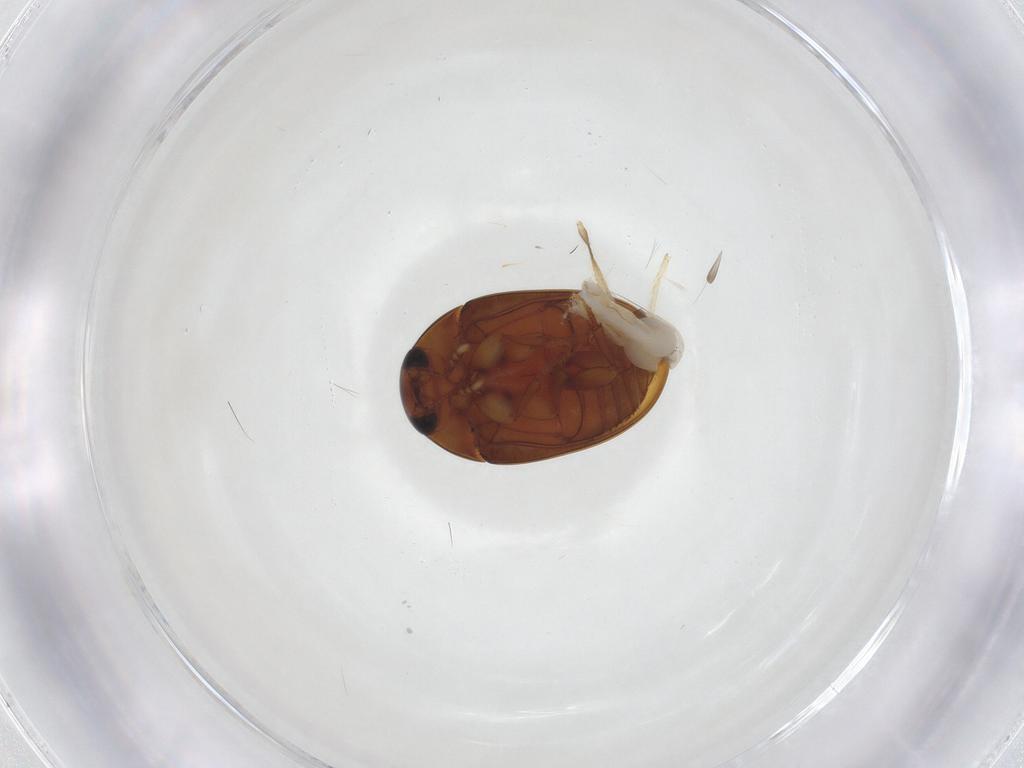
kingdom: Animalia
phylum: Arthropoda
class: Insecta
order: Coleoptera
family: Phalacridae
